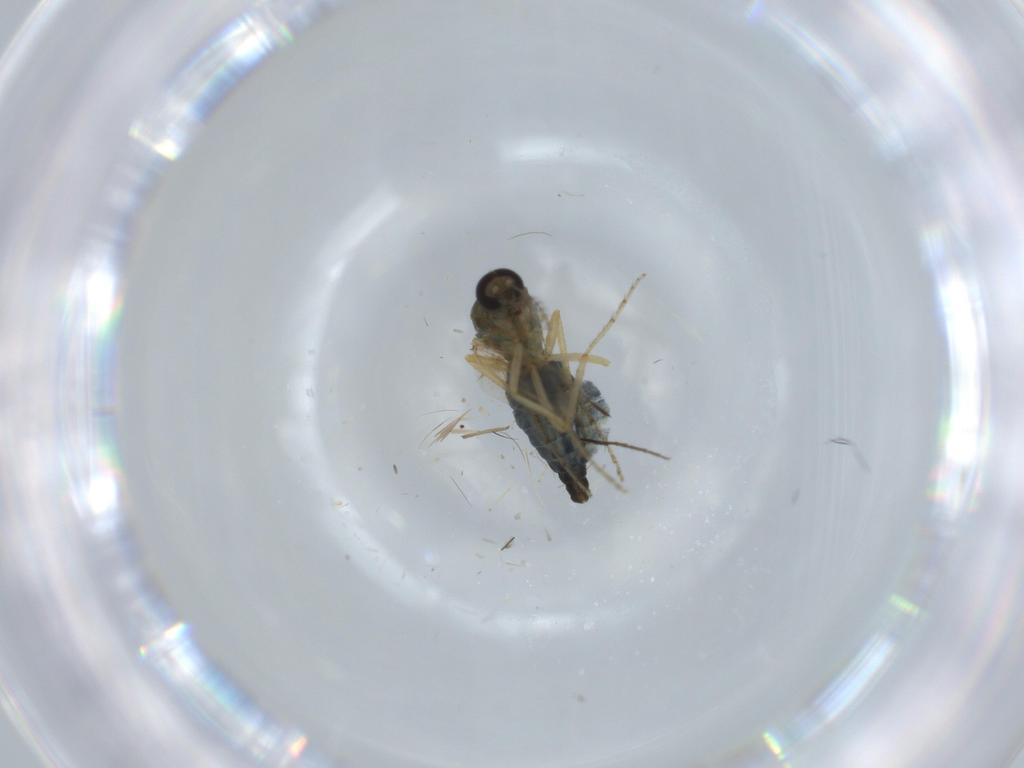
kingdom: Animalia
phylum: Arthropoda
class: Insecta
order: Diptera
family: Ceratopogonidae
